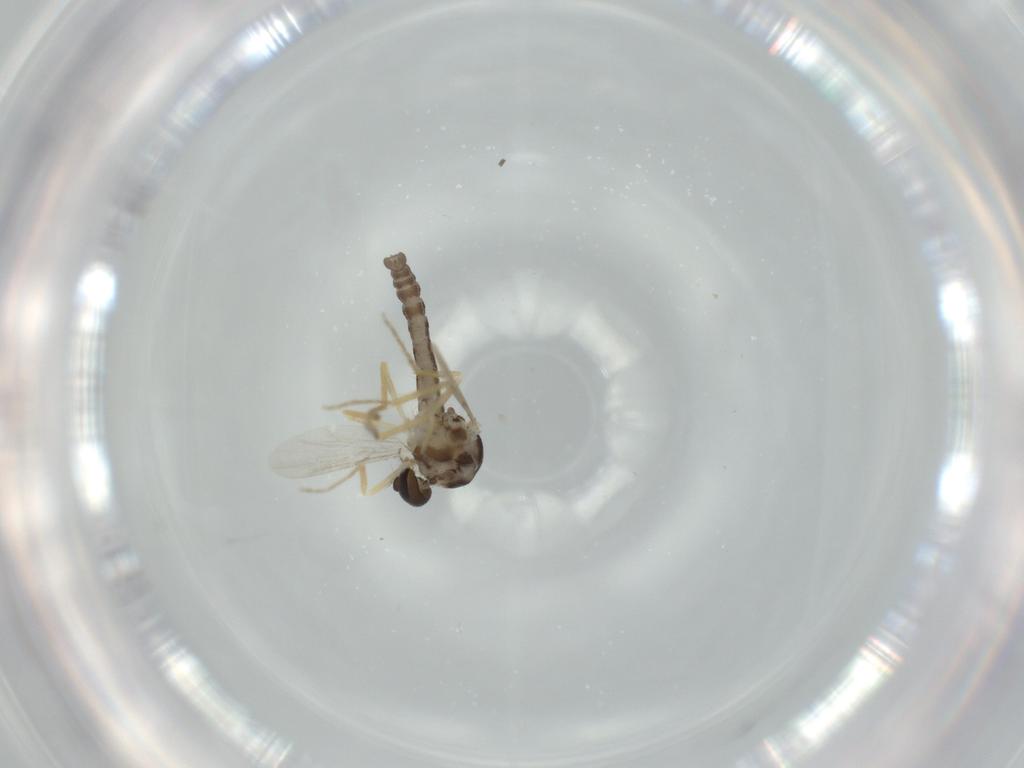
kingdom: Animalia
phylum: Arthropoda
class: Insecta
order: Diptera
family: Ceratopogonidae
